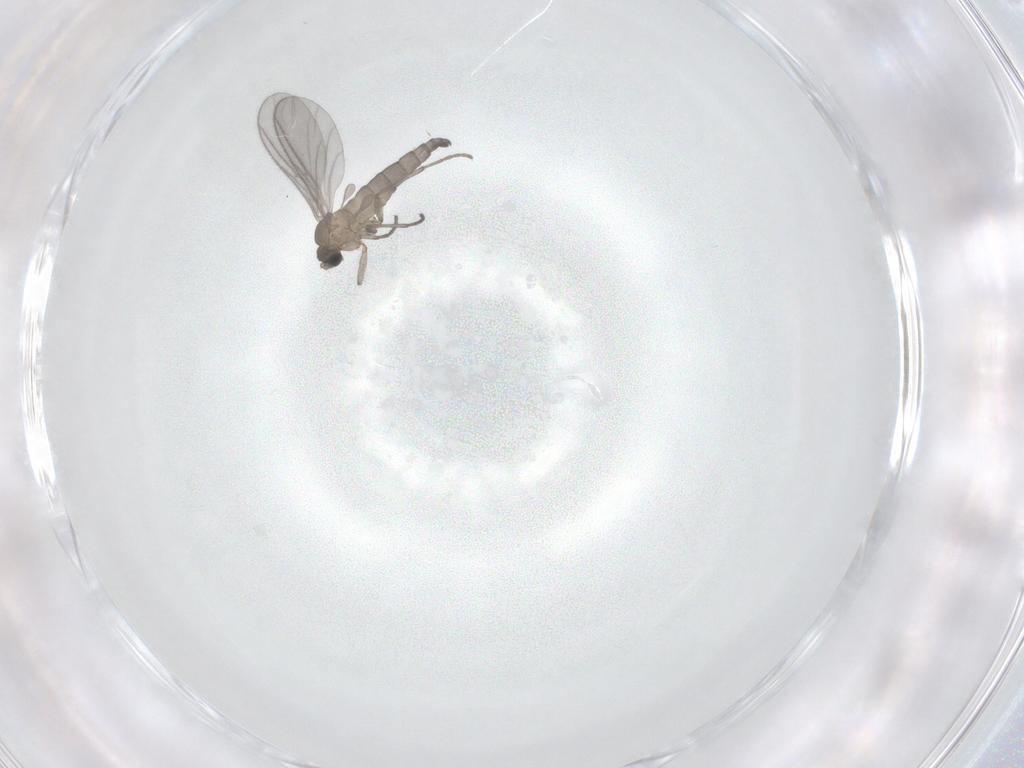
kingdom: Animalia
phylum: Arthropoda
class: Insecta
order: Diptera
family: Sciaridae
